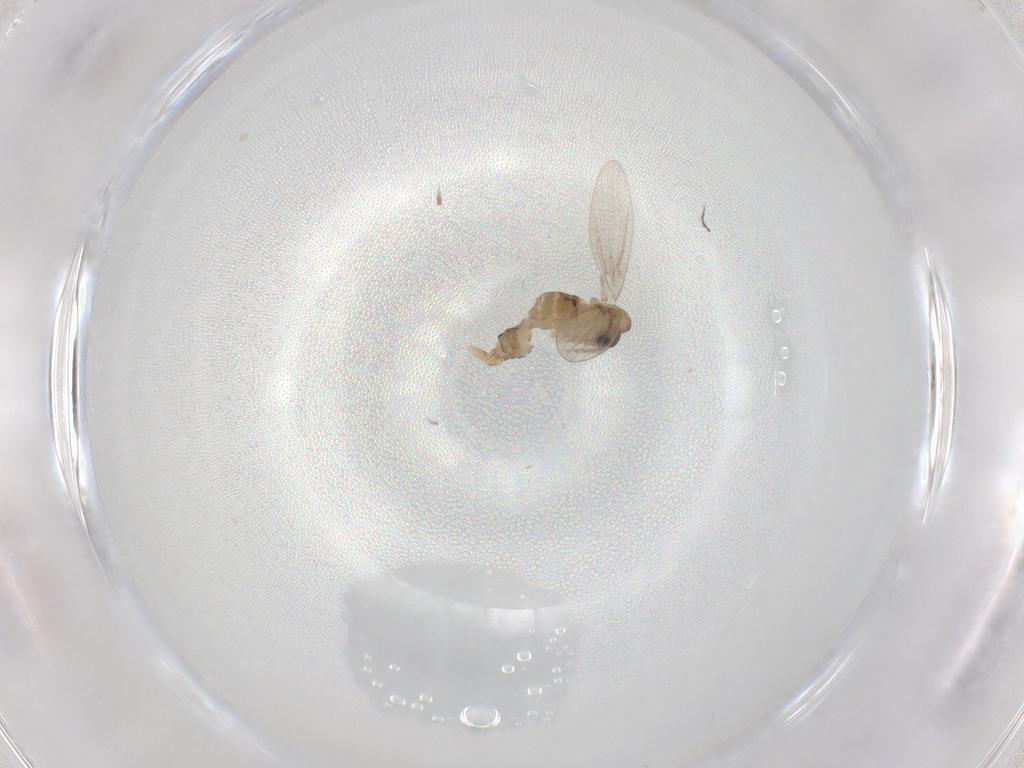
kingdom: Animalia
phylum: Arthropoda
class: Insecta
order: Diptera
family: Psychodidae
